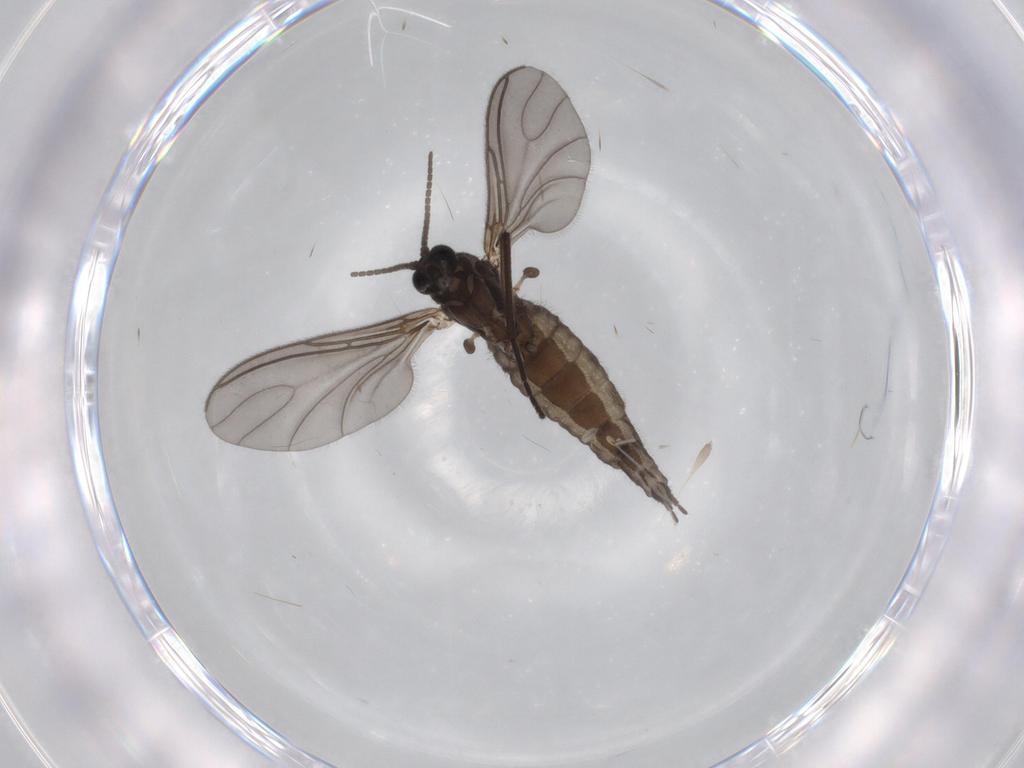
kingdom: Animalia
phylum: Arthropoda
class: Insecta
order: Diptera
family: Sciaridae
